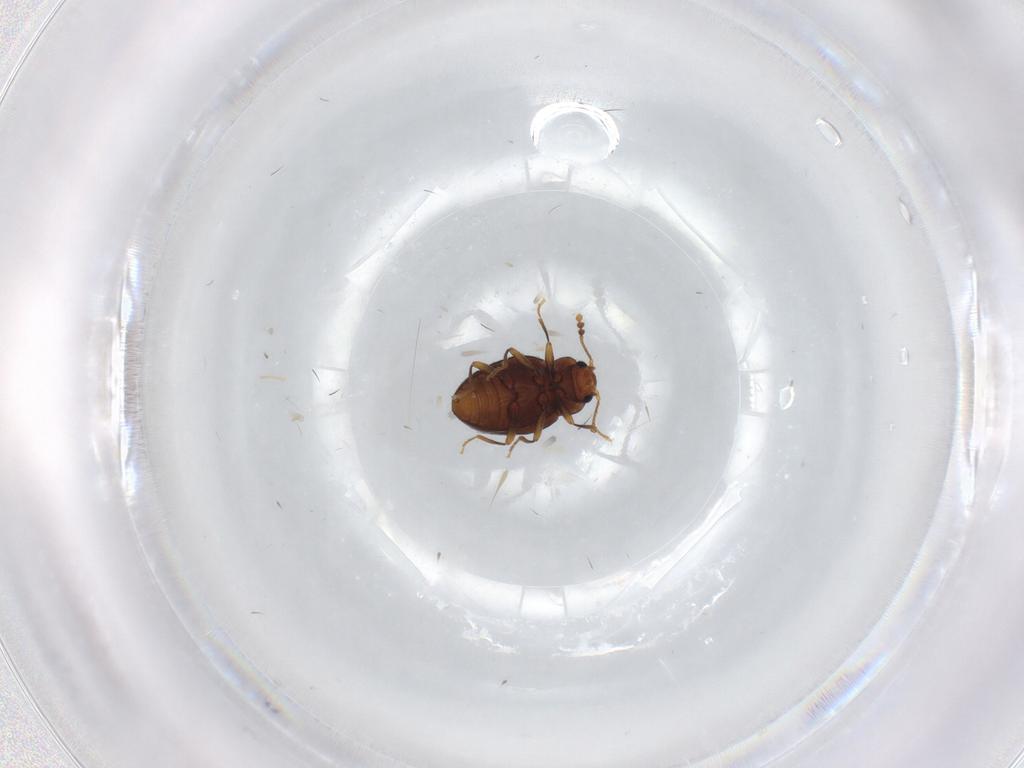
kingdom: Animalia
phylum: Arthropoda
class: Insecta
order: Coleoptera
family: Erotylidae
